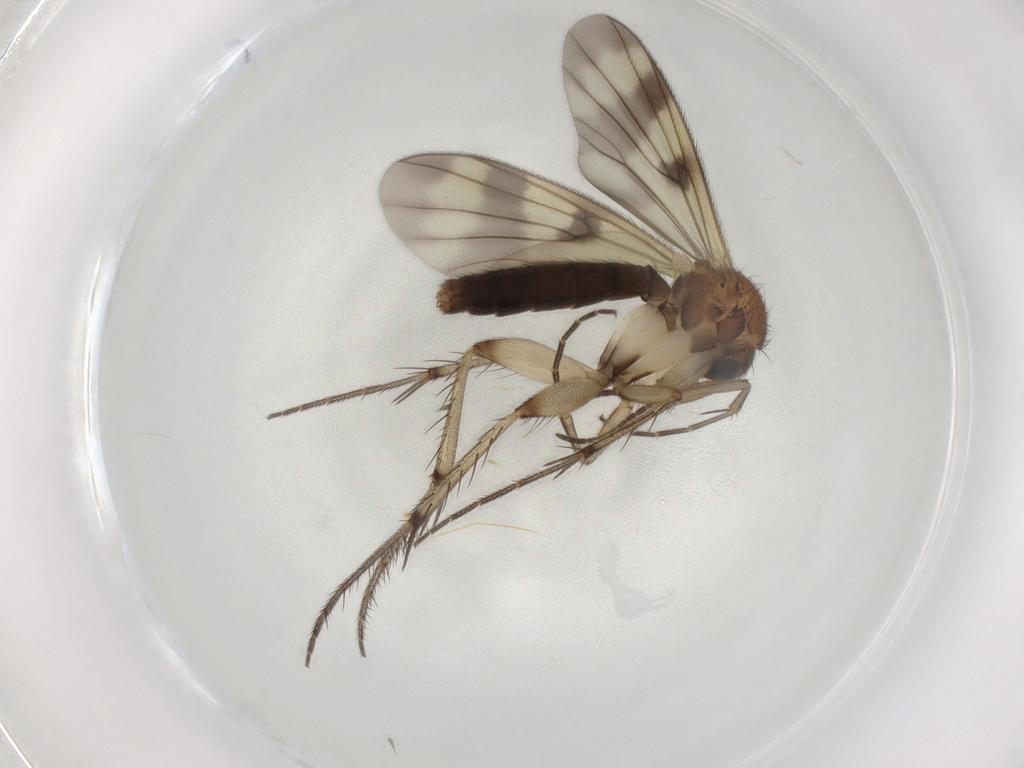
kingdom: Animalia
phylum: Arthropoda
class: Insecta
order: Diptera
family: Mycetophilidae
